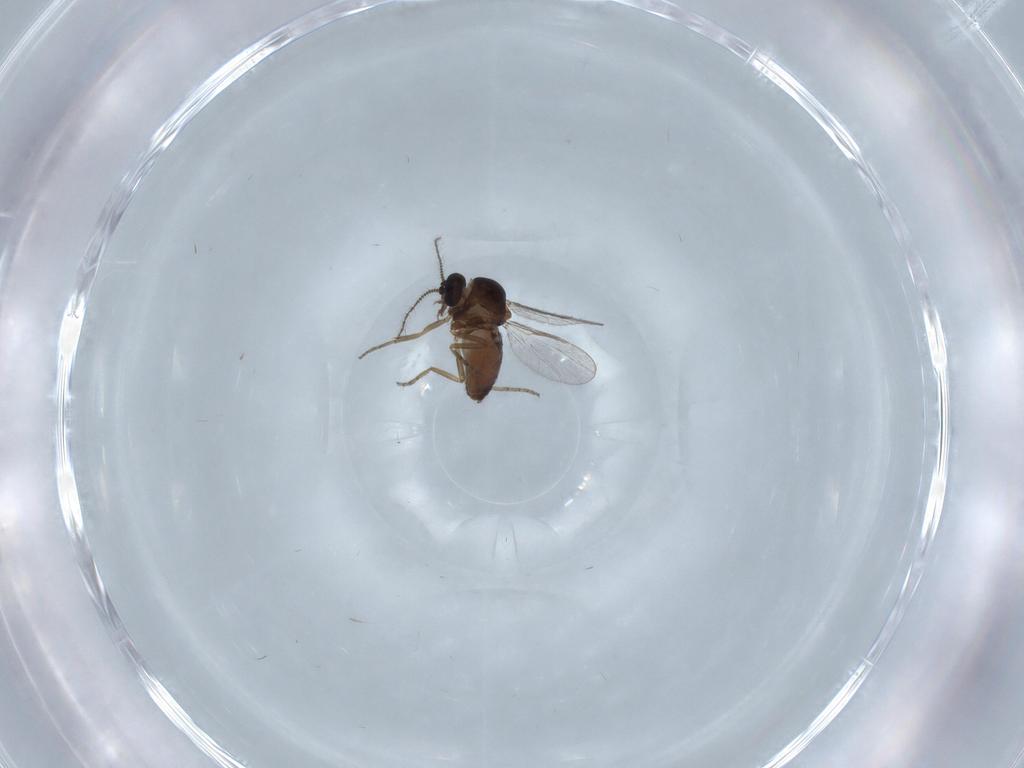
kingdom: Animalia
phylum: Arthropoda
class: Insecta
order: Diptera
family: Ceratopogonidae
